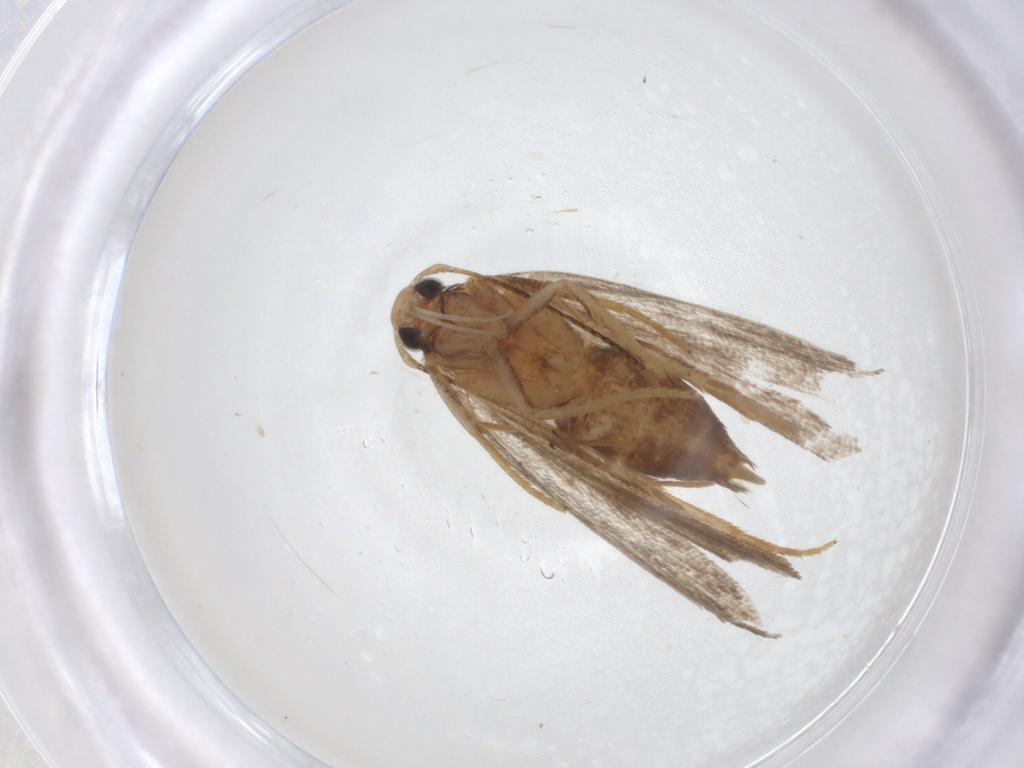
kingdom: Animalia
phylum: Arthropoda
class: Insecta
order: Lepidoptera
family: Gelechiidae
